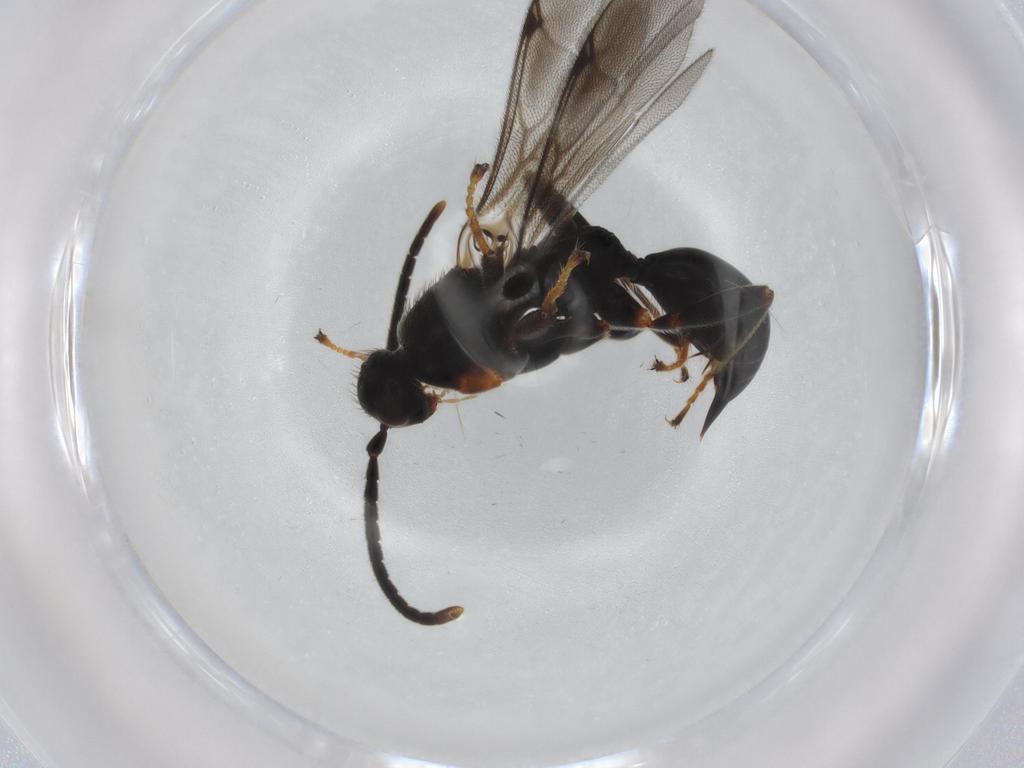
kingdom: Animalia
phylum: Arthropoda
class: Insecta
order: Hymenoptera
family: Proctotrupidae
